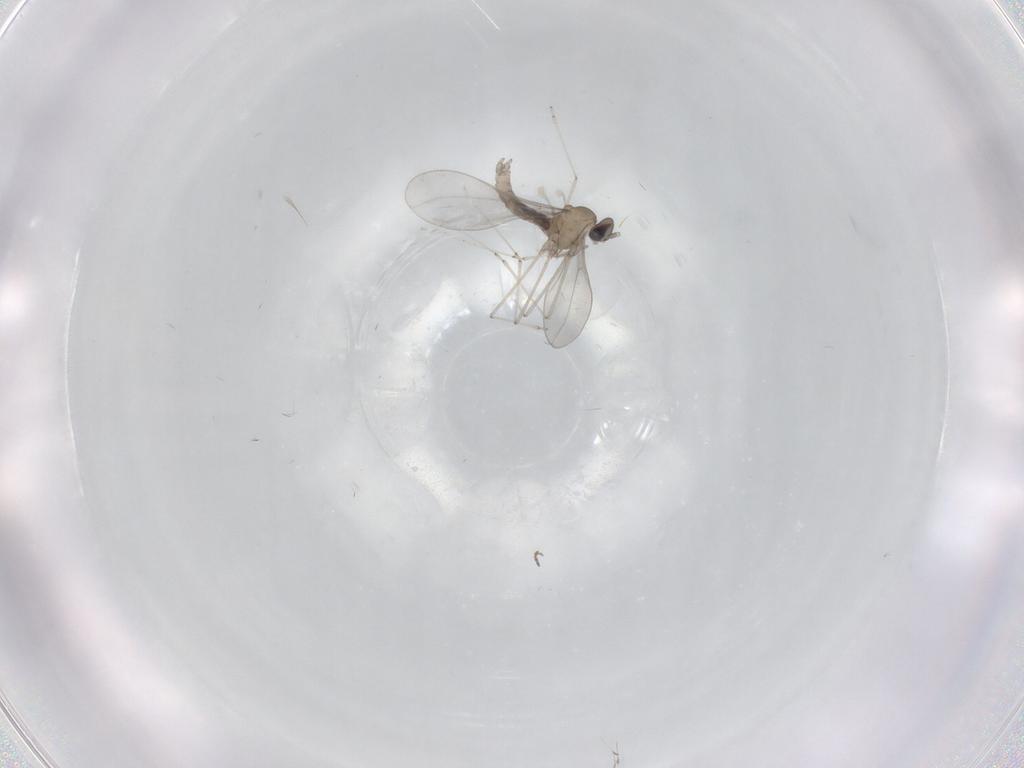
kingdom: Animalia
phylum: Arthropoda
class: Insecta
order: Diptera
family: Cecidomyiidae
